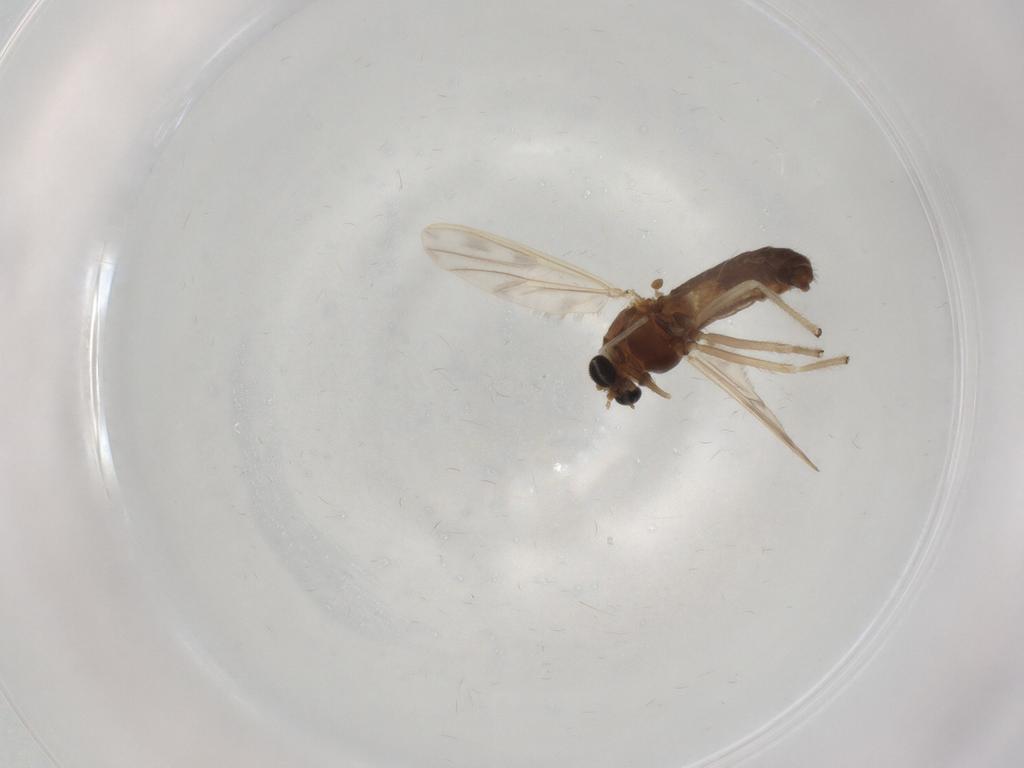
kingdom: Animalia
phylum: Arthropoda
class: Insecta
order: Diptera
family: Chironomidae
